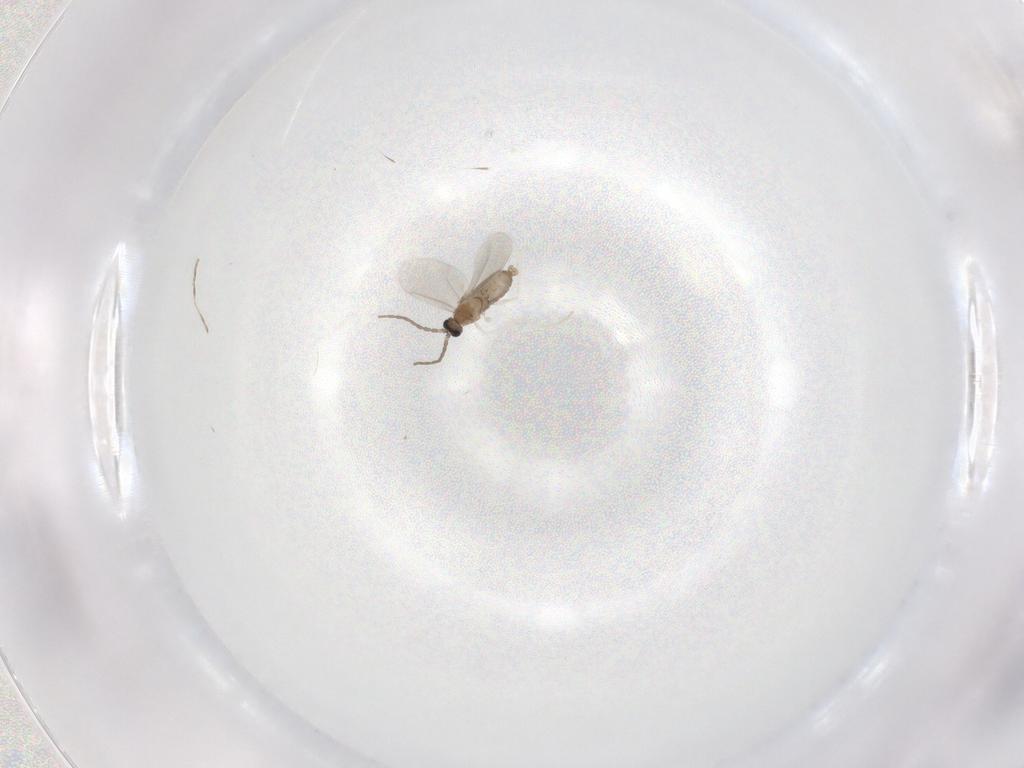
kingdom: Animalia
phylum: Arthropoda
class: Insecta
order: Diptera
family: Cecidomyiidae
